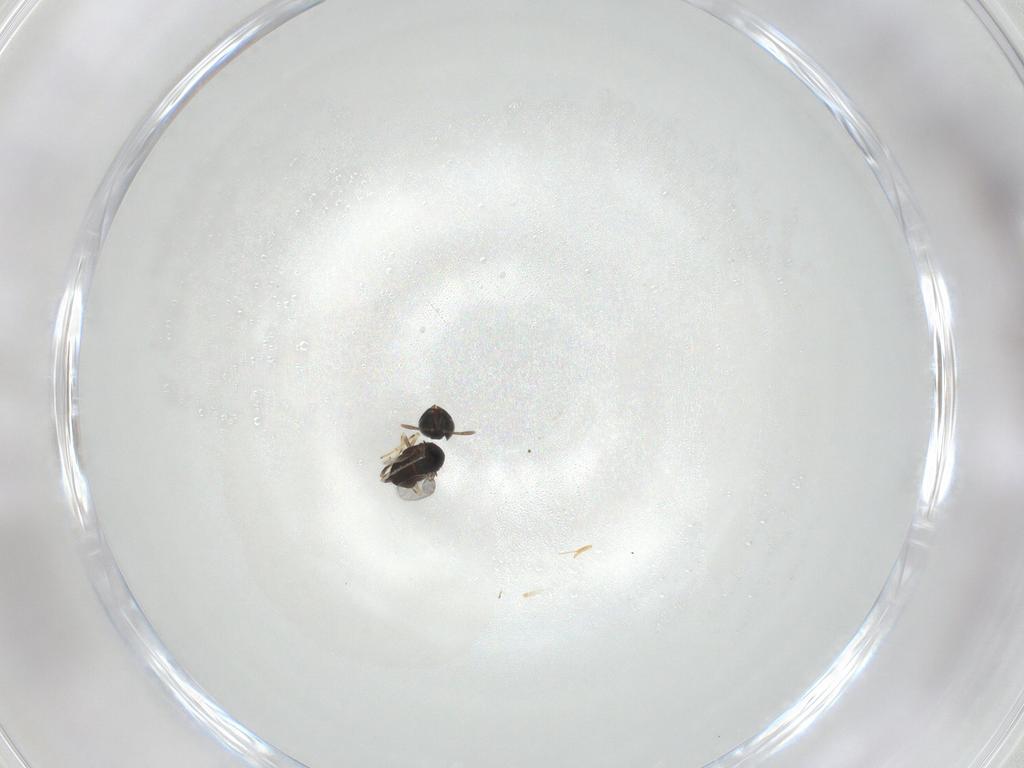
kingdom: Animalia
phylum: Arthropoda
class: Insecta
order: Hymenoptera
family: Encyrtidae
